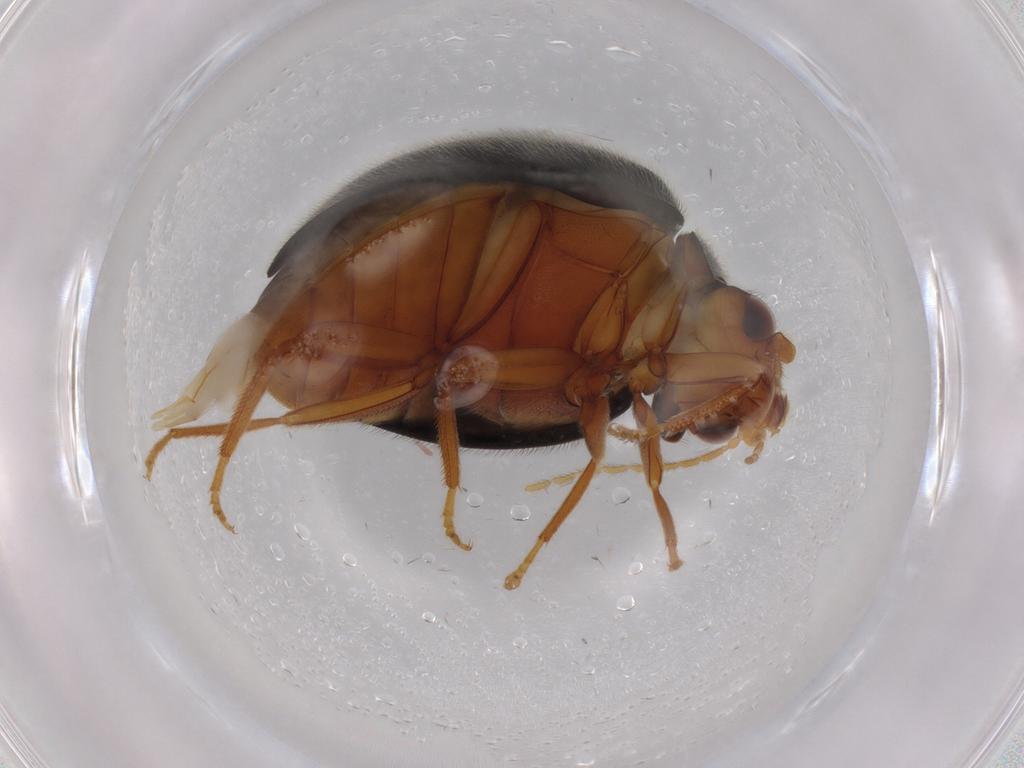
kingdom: Animalia
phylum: Arthropoda
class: Insecta
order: Coleoptera
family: Scirtidae
